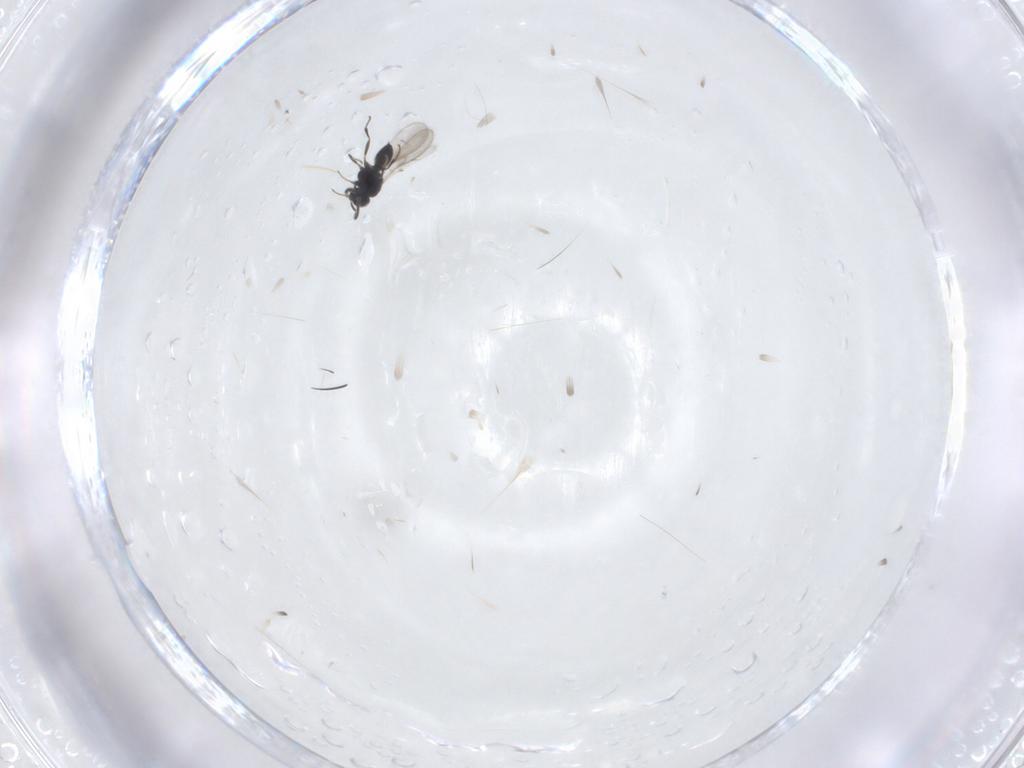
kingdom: Animalia
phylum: Arthropoda
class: Insecta
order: Hymenoptera
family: Scelionidae
